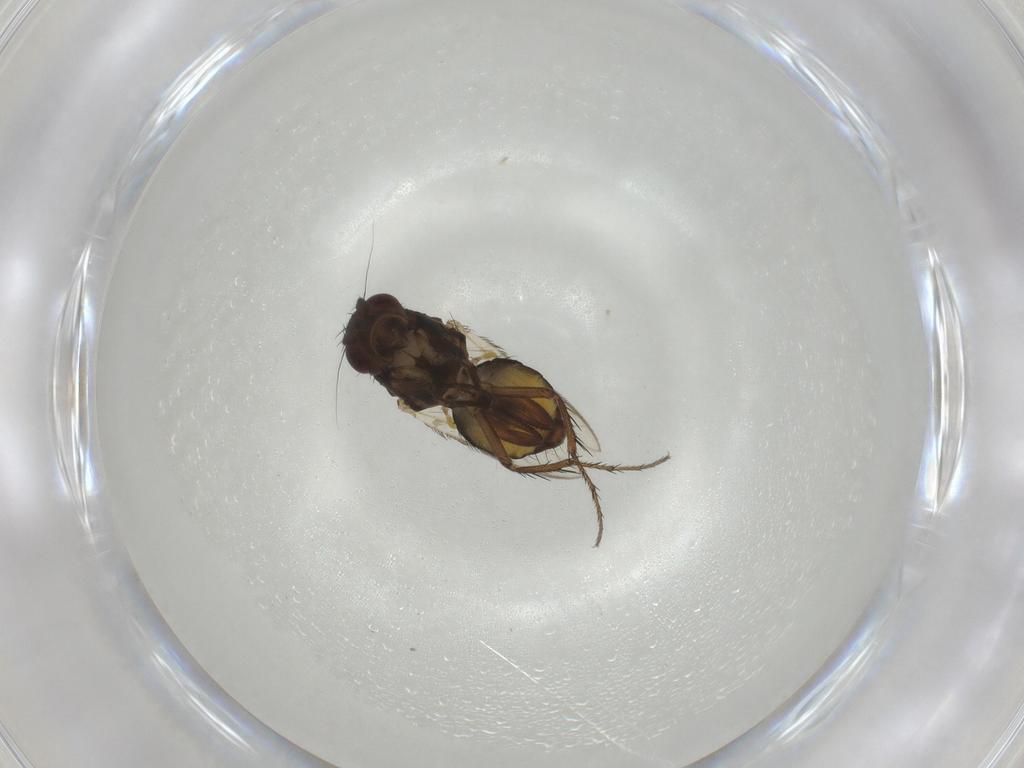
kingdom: Animalia
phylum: Arthropoda
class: Insecta
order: Diptera
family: Sphaeroceridae
